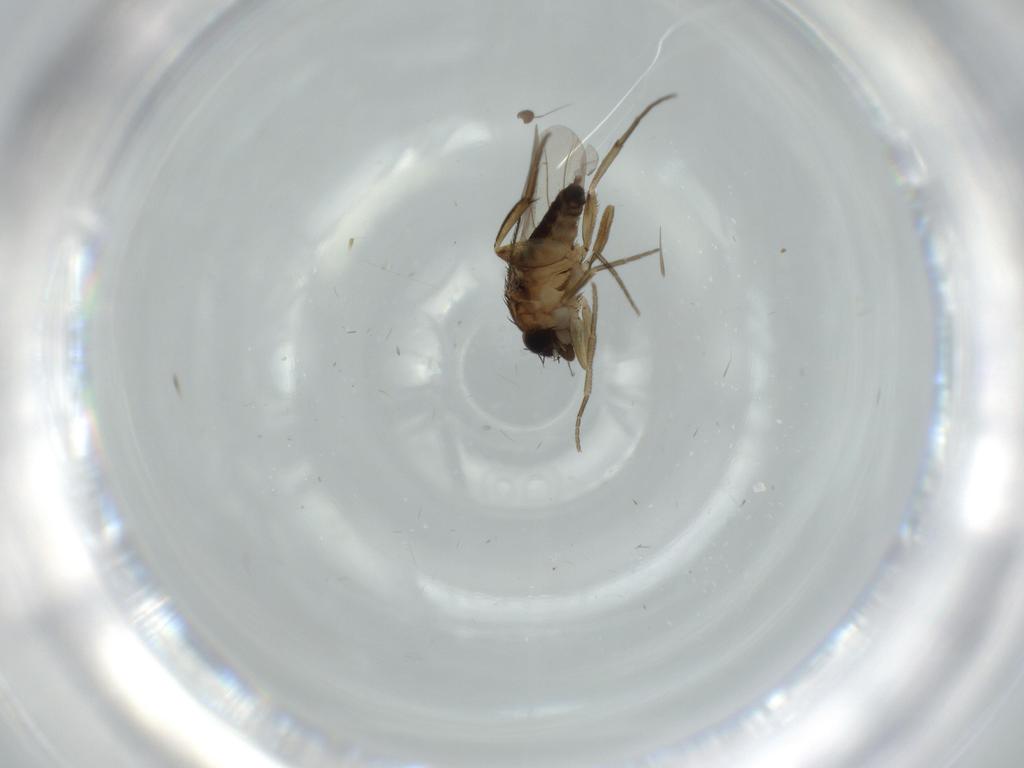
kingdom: Animalia
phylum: Arthropoda
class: Insecta
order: Diptera
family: Phoridae
